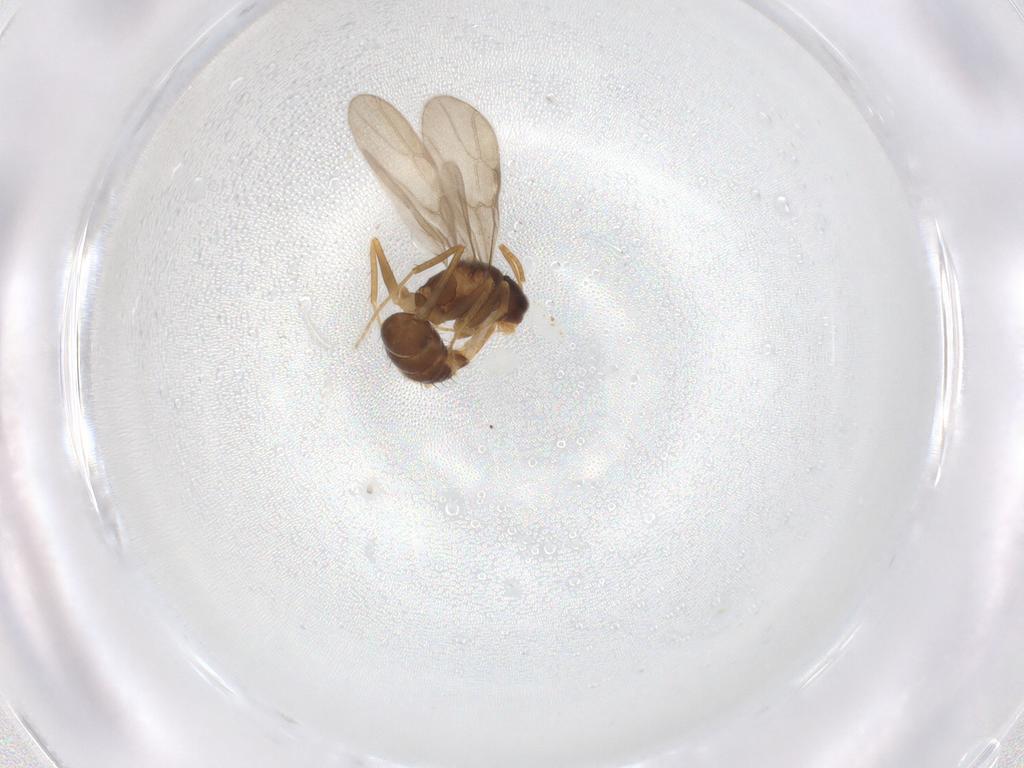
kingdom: Animalia
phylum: Arthropoda
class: Insecta
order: Hymenoptera
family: Formicidae
